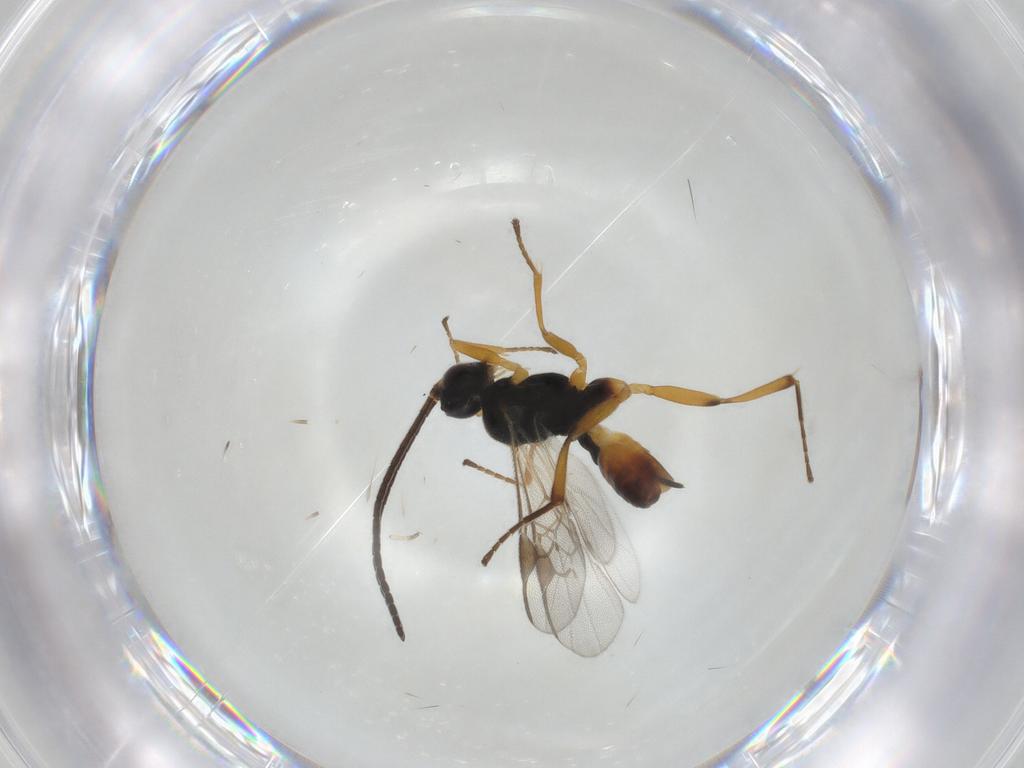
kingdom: Animalia
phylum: Arthropoda
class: Insecta
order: Hymenoptera
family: Braconidae
